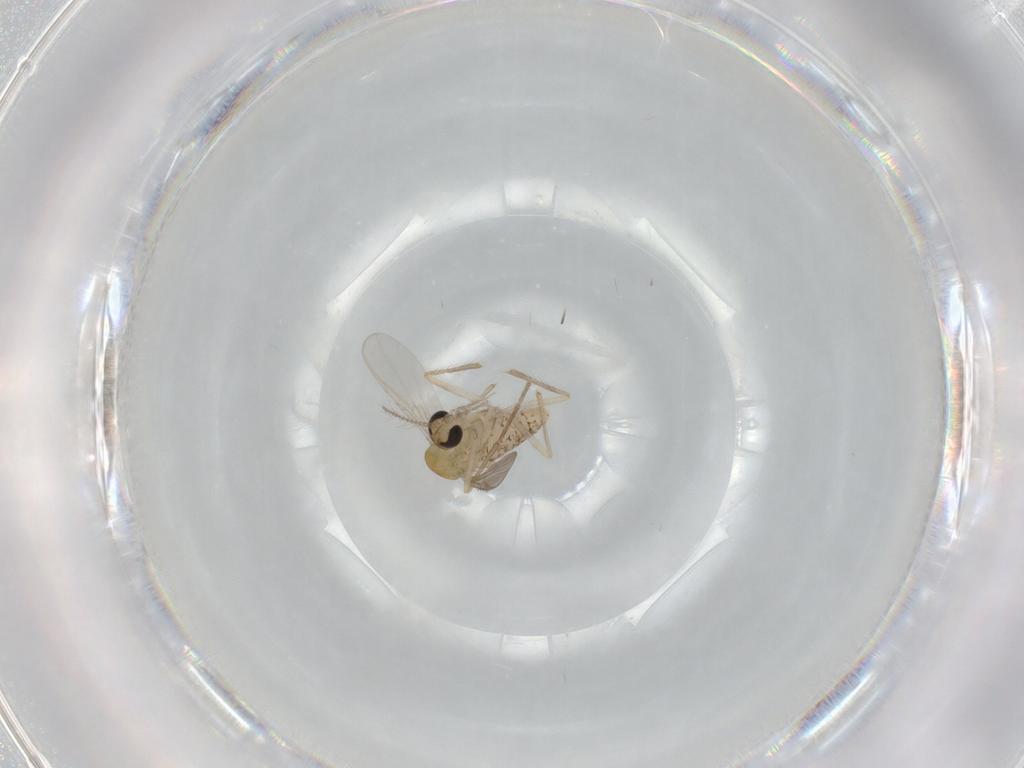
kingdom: Animalia
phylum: Arthropoda
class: Insecta
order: Diptera
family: Chironomidae
